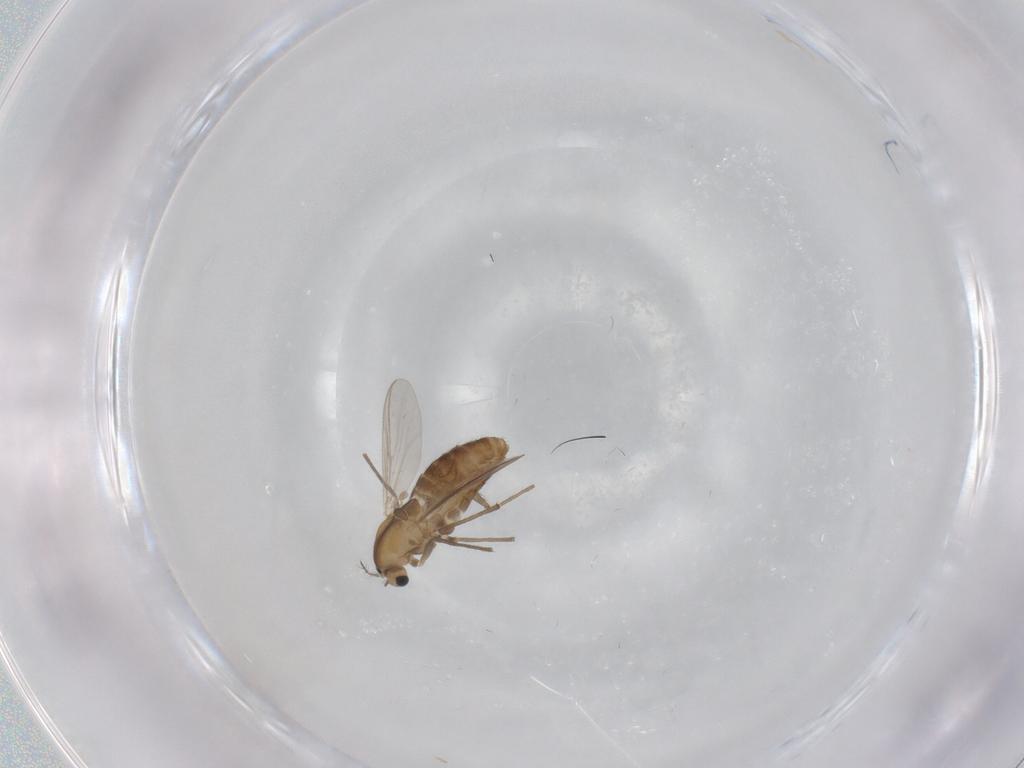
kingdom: Animalia
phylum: Arthropoda
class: Insecta
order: Diptera
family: Chironomidae
